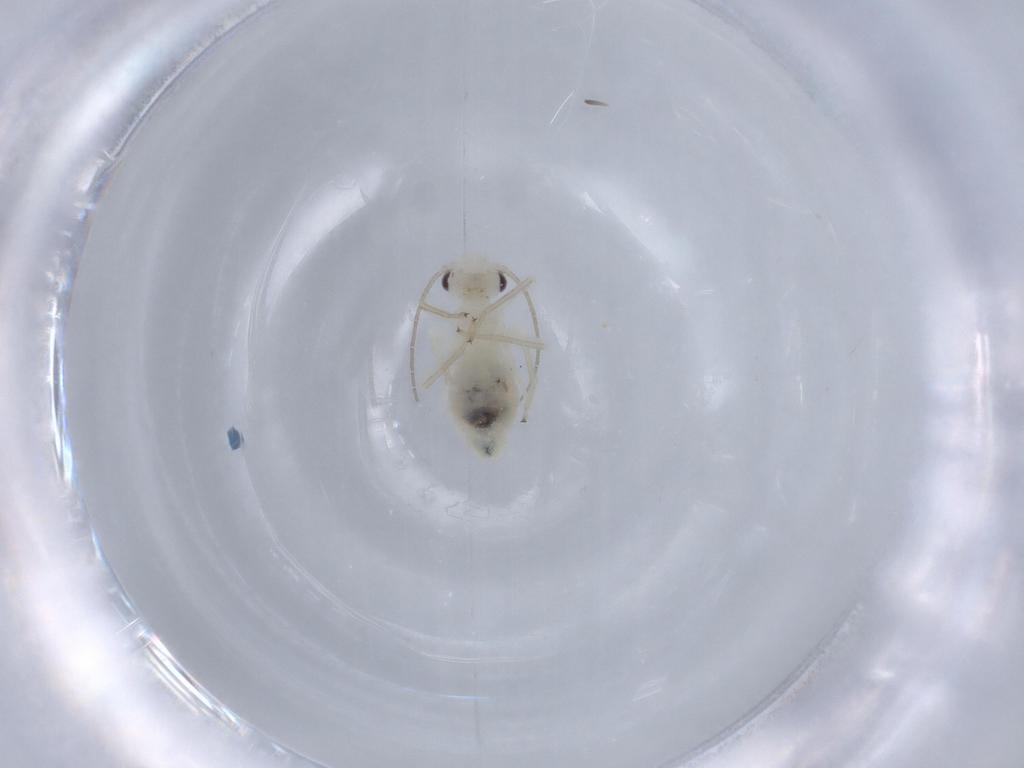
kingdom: Animalia
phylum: Arthropoda
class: Insecta
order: Psocodea
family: Caeciliusidae
